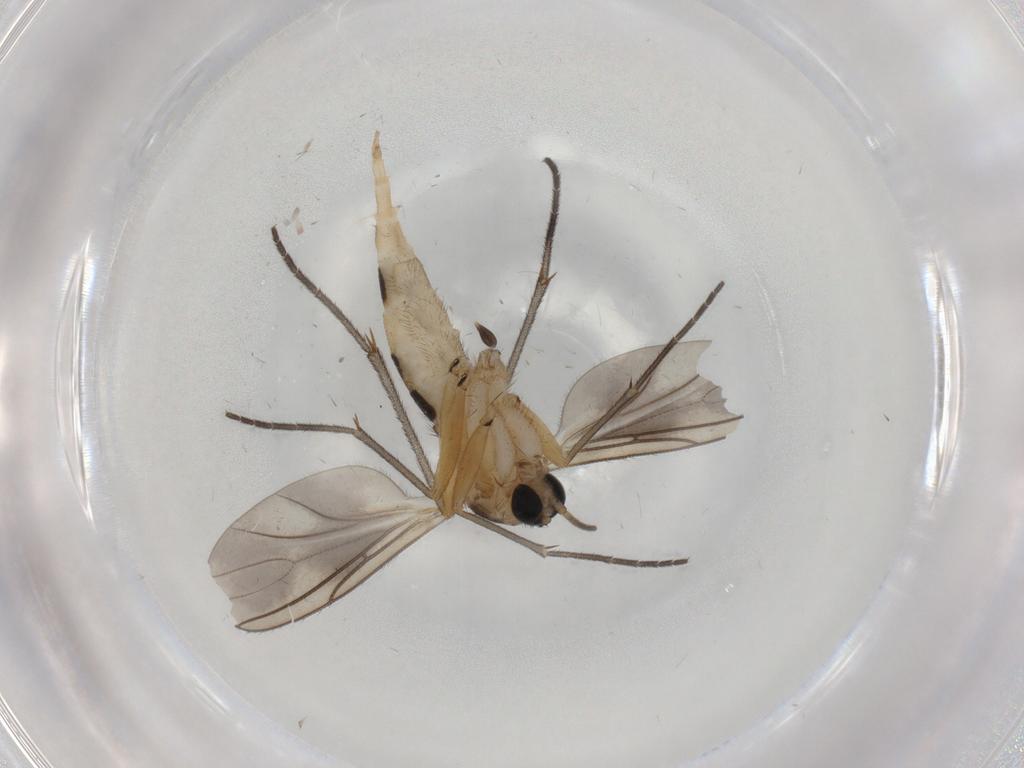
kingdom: Animalia
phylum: Arthropoda
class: Insecta
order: Diptera
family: Sciaridae
